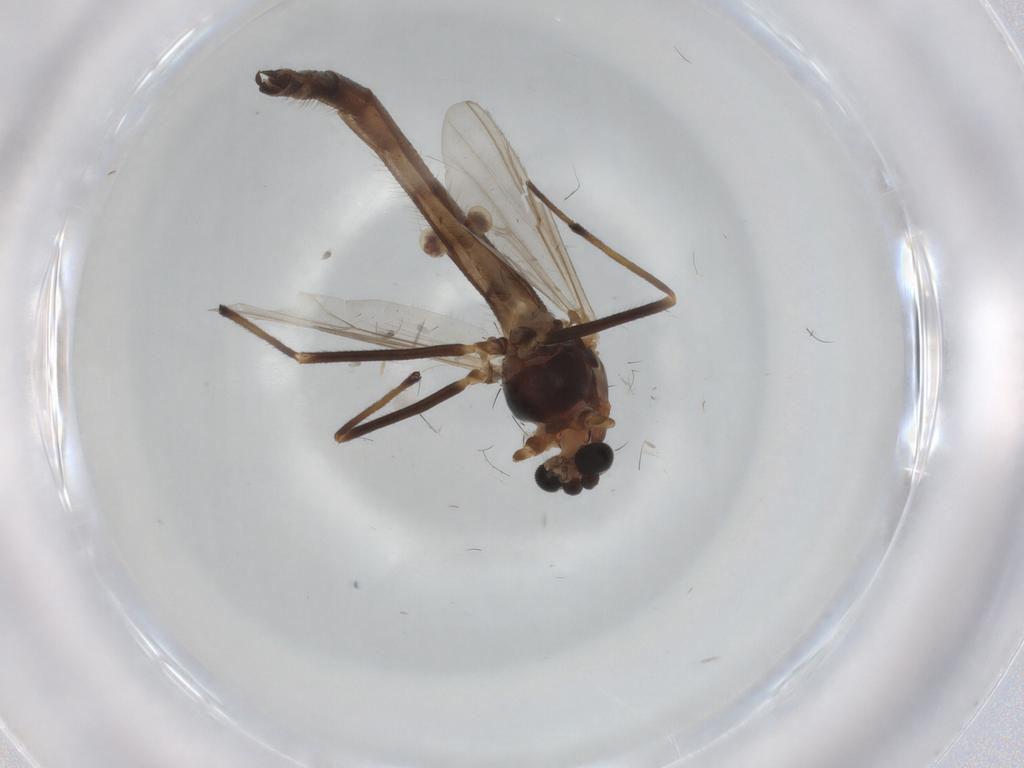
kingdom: Animalia
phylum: Arthropoda
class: Insecta
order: Diptera
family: Chironomidae
